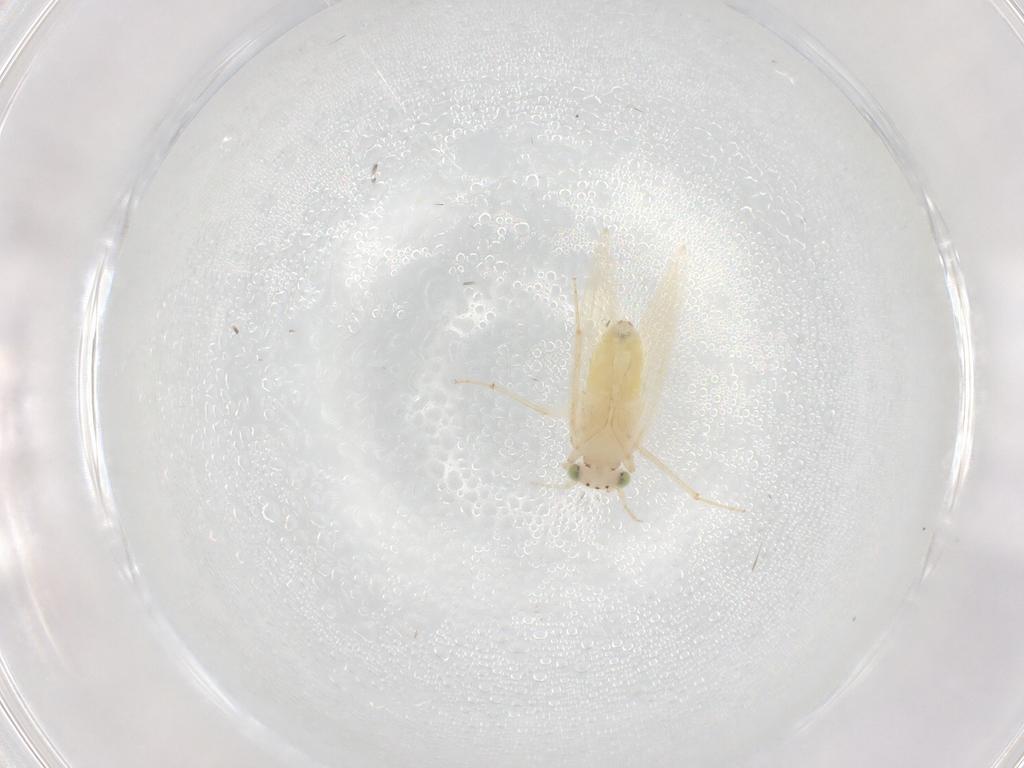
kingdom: Animalia
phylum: Arthropoda
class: Insecta
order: Psocodea
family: Lepidopsocidae
